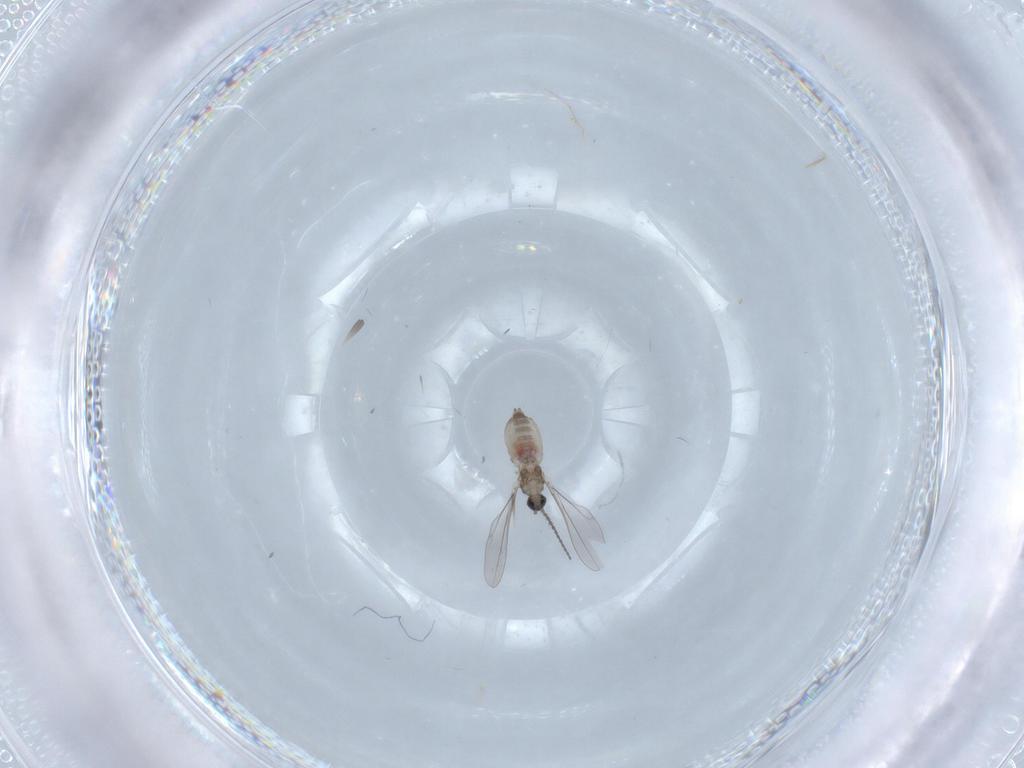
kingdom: Animalia
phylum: Arthropoda
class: Insecta
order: Diptera
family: Cecidomyiidae
